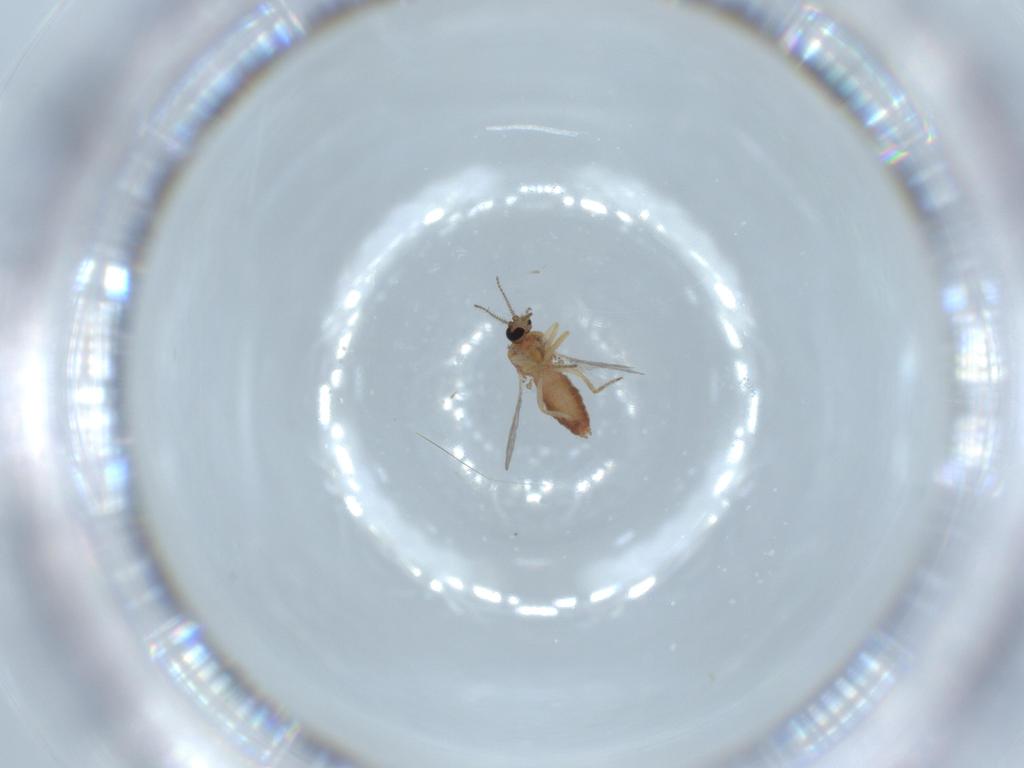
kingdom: Animalia
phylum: Arthropoda
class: Insecta
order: Diptera
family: Ceratopogonidae
